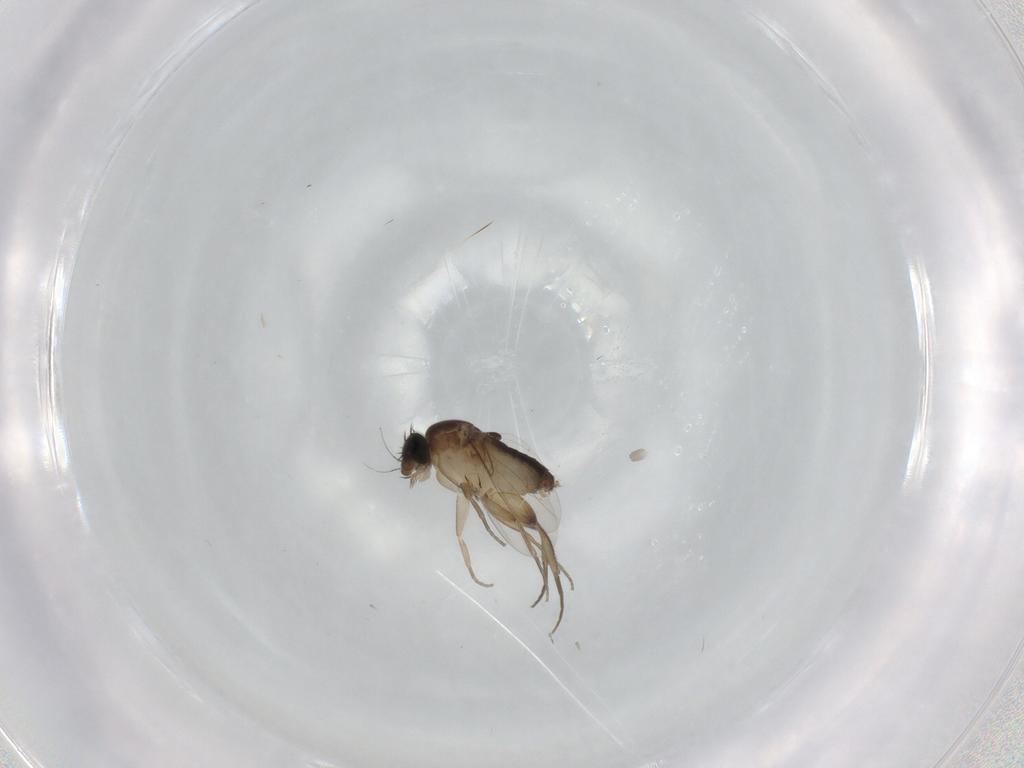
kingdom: Animalia
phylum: Arthropoda
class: Insecta
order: Diptera
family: Phoridae
